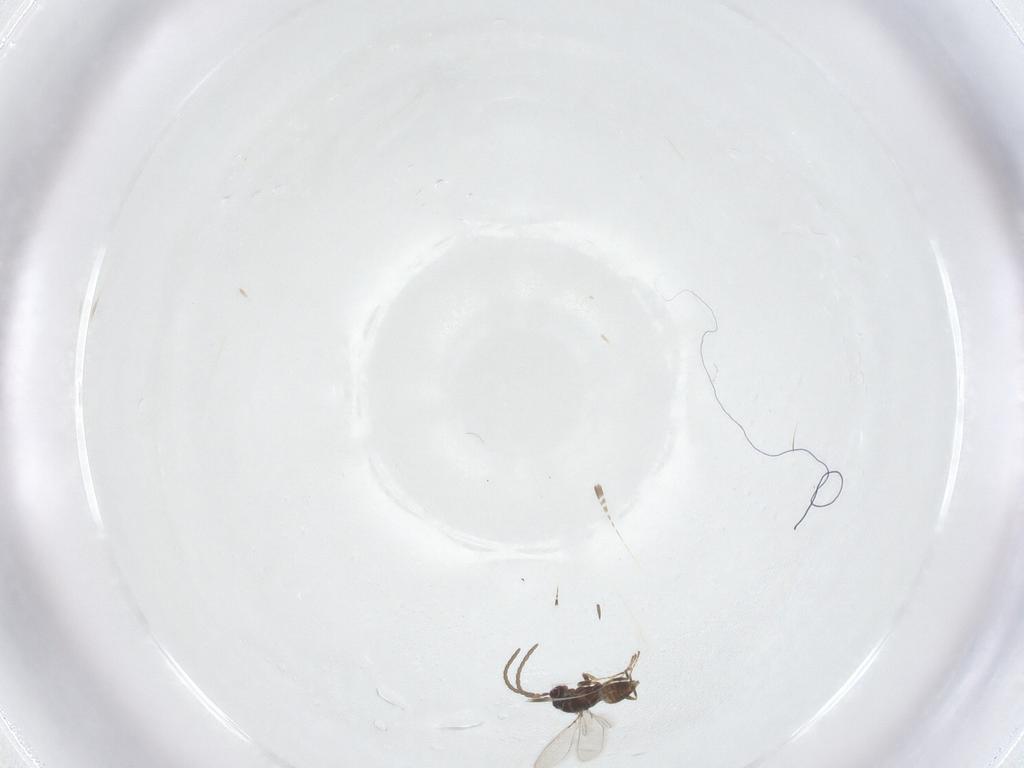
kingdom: Animalia
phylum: Arthropoda
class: Insecta
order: Hymenoptera
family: Mymaridae
